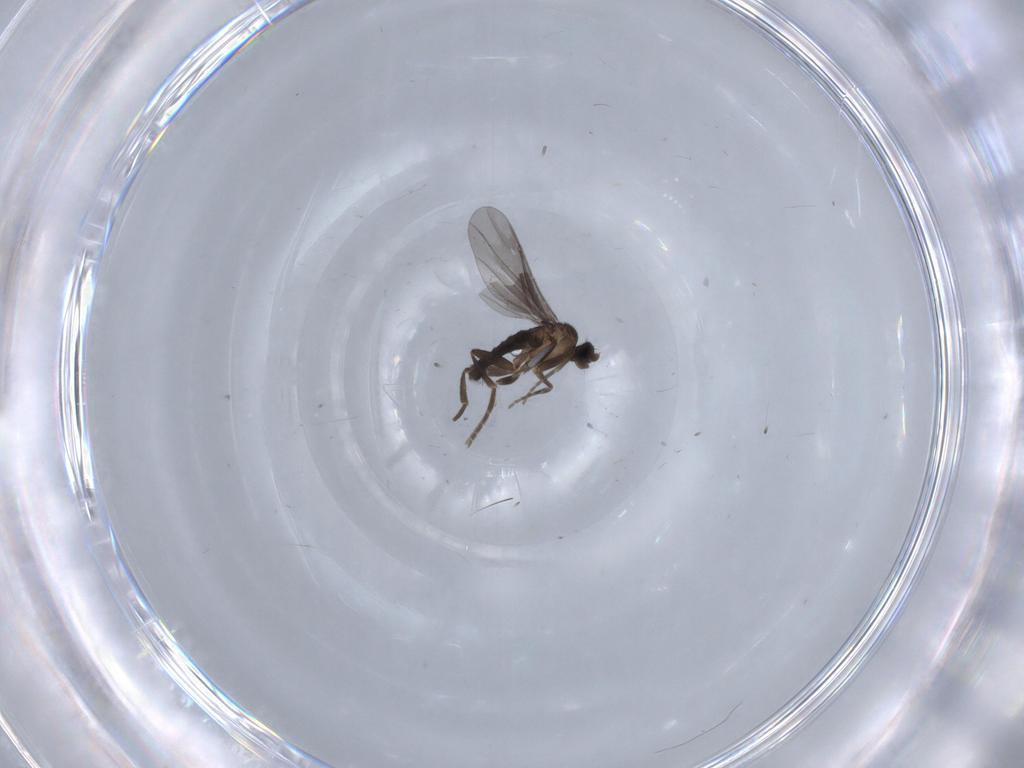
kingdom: Animalia
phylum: Arthropoda
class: Insecta
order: Diptera
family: Phoridae
